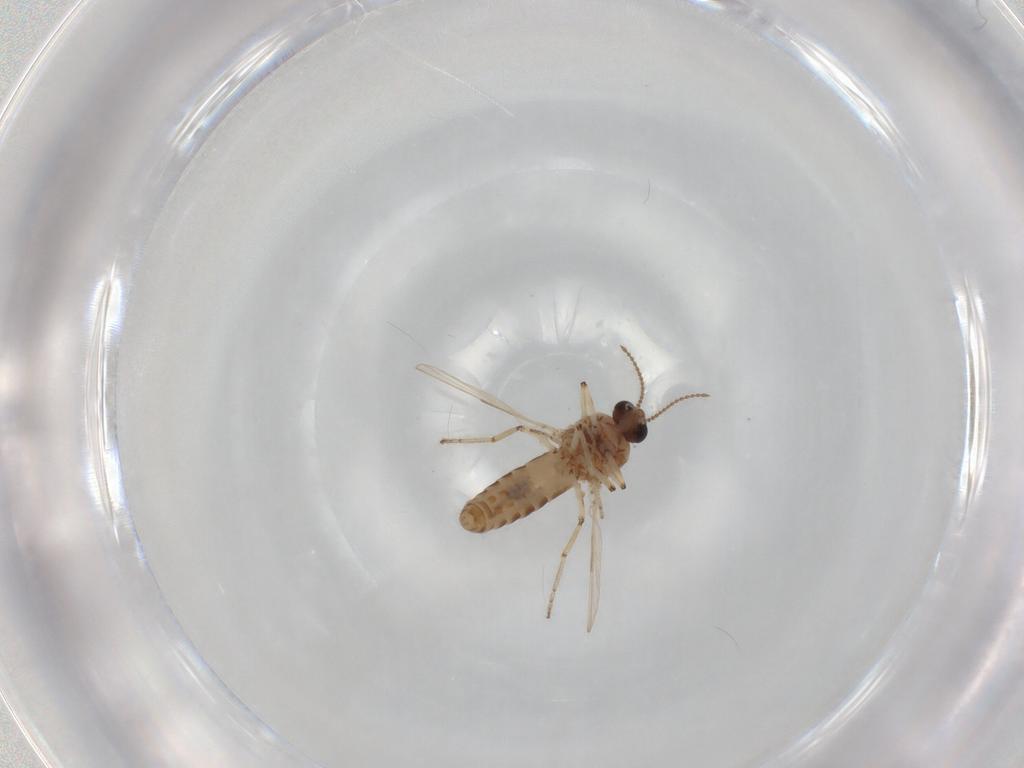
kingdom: Animalia
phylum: Arthropoda
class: Insecta
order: Diptera
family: Ceratopogonidae
